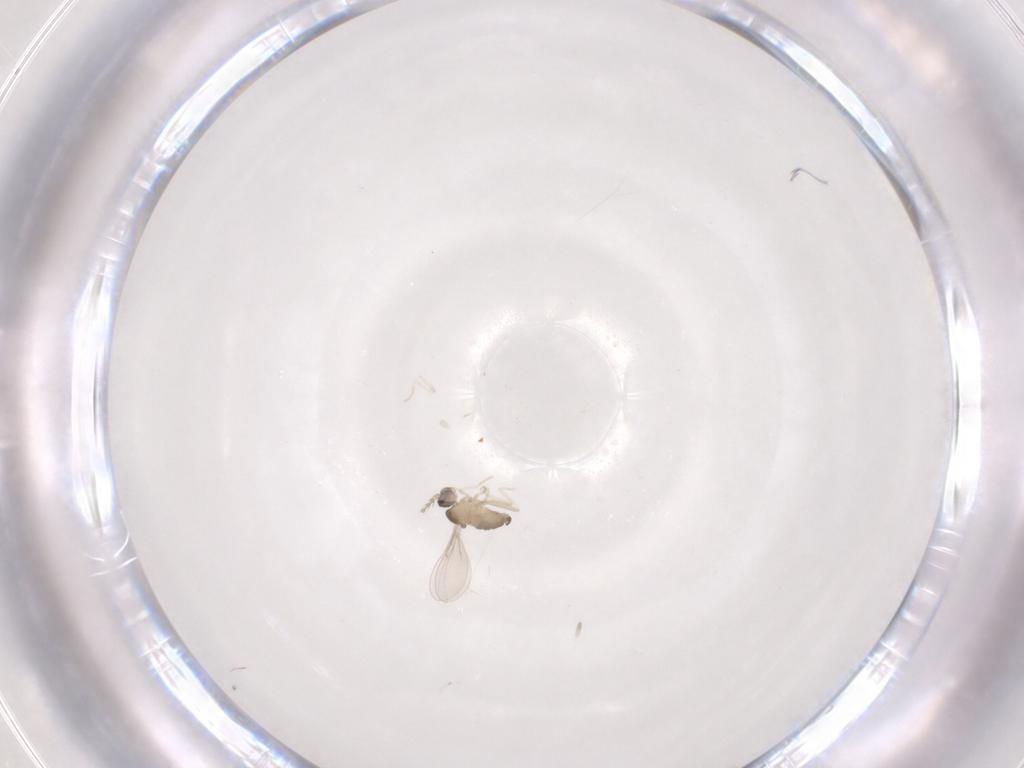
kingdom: Animalia
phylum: Arthropoda
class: Insecta
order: Diptera
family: Cecidomyiidae
